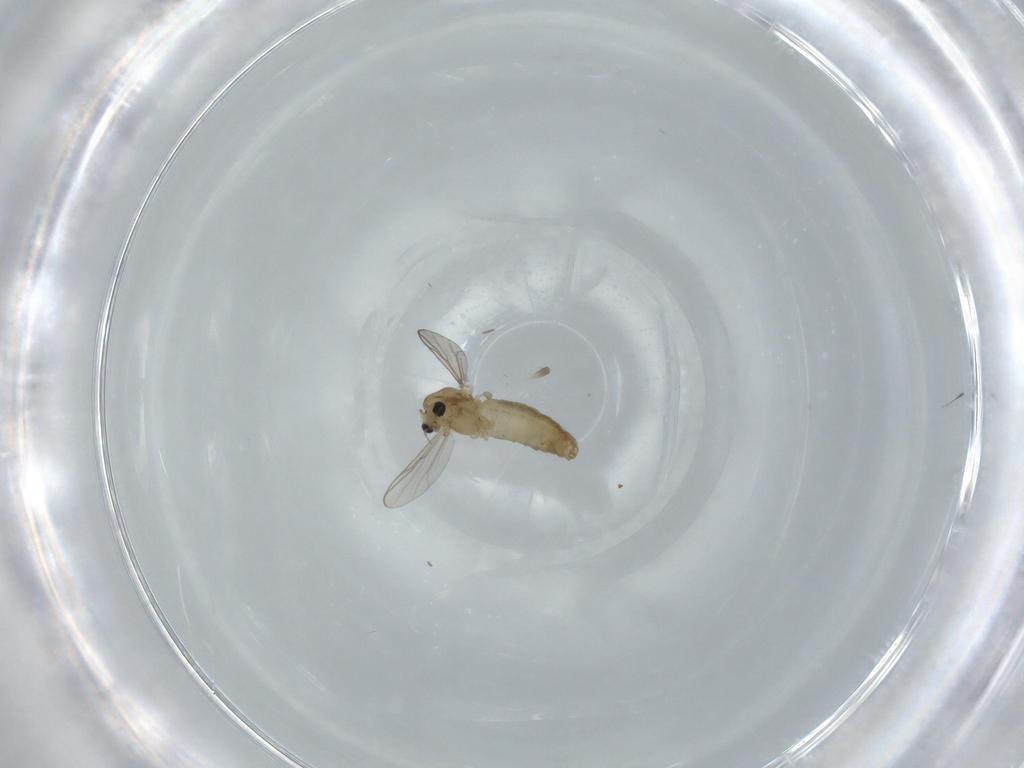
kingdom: Animalia
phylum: Arthropoda
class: Insecta
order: Diptera
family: Chironomidae
